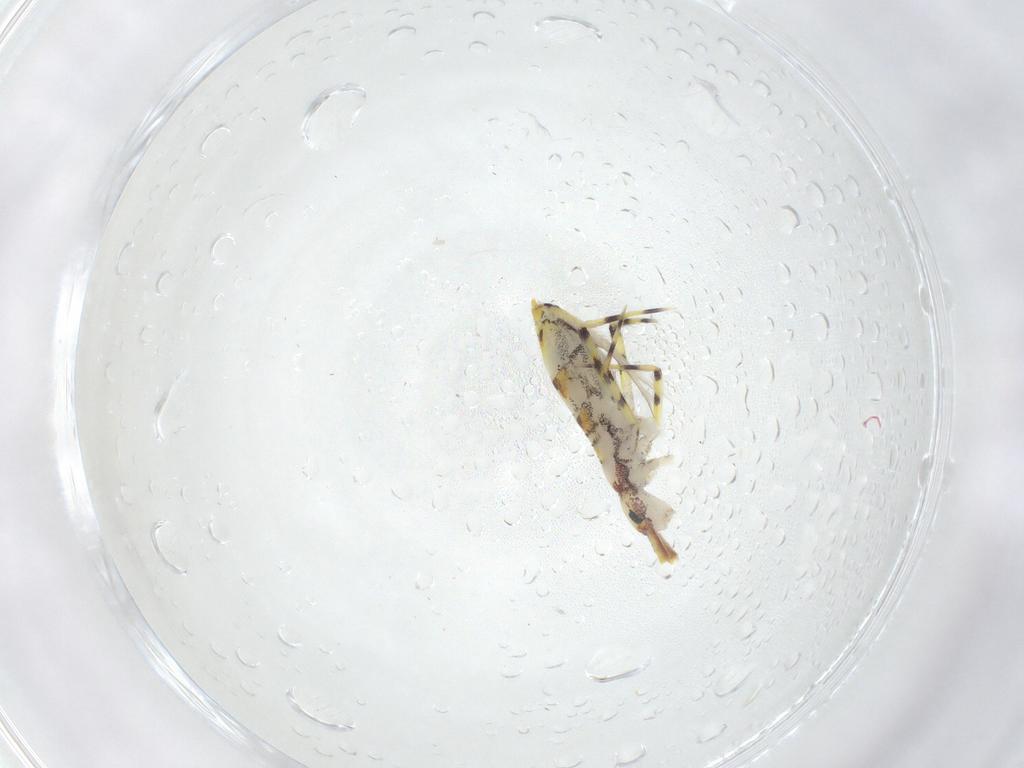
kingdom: Animalia
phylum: Arthropoda
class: Collembola
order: Entomobryomorpha
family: Entomobryidae
